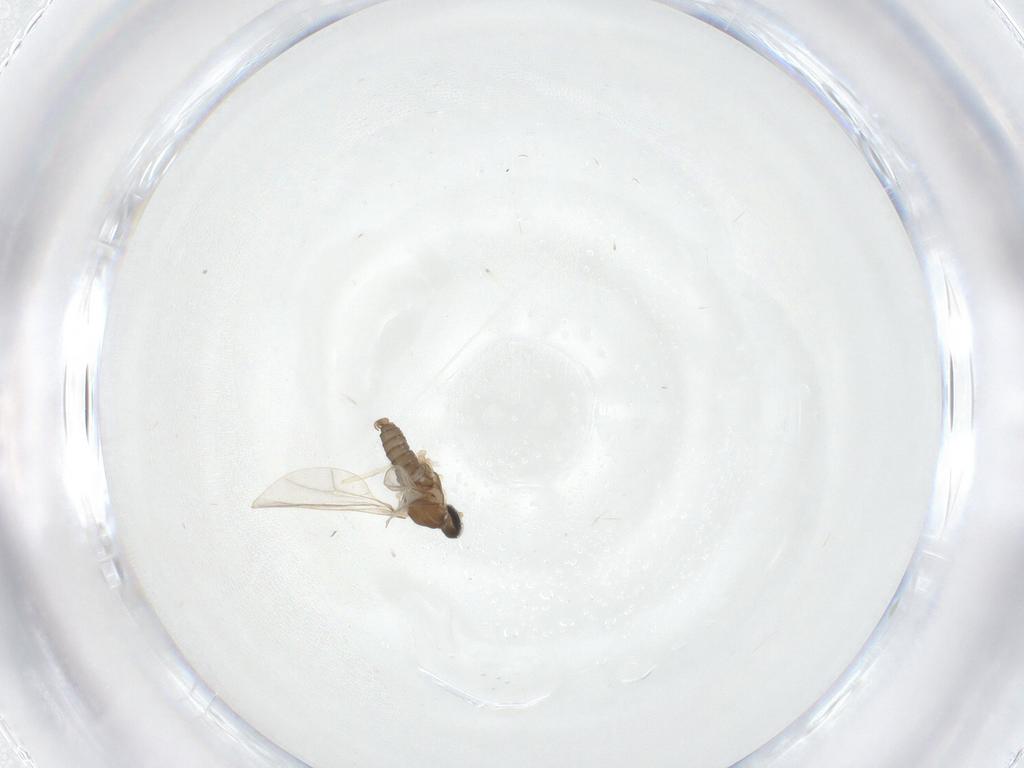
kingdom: Animalia
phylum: Arthropoda
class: Insecta
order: Diptera
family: Cecidomyiidae
